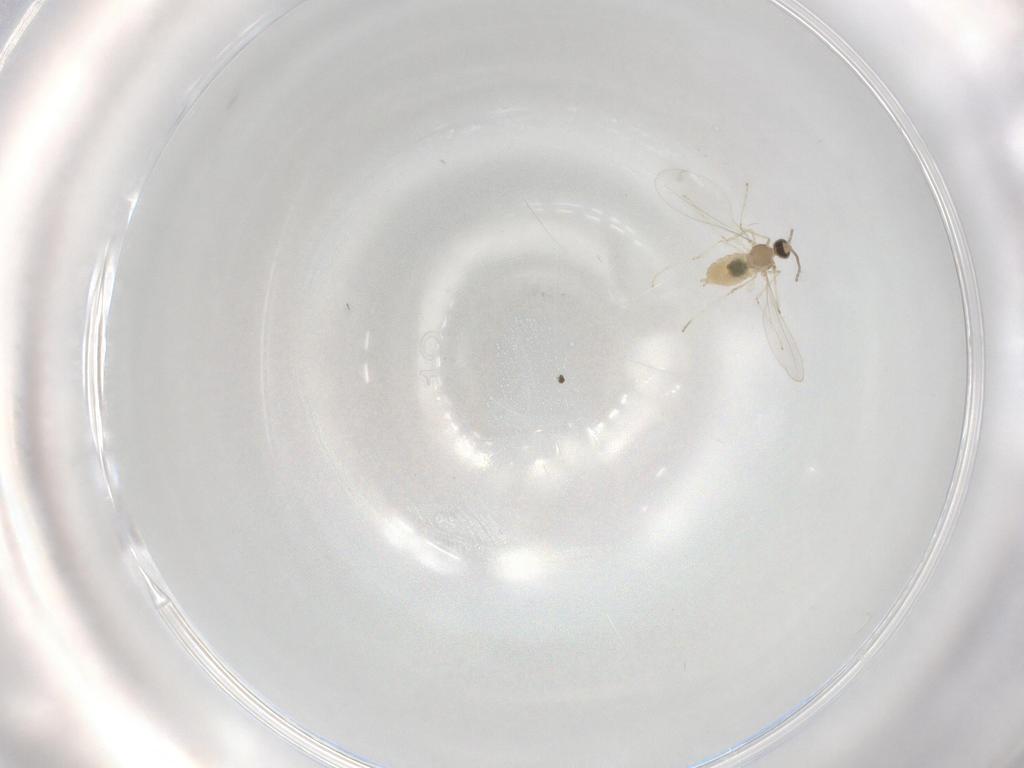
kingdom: Animalia
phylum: Arthropoda
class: Insecta
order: Diptera
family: Cecidomyiidae
